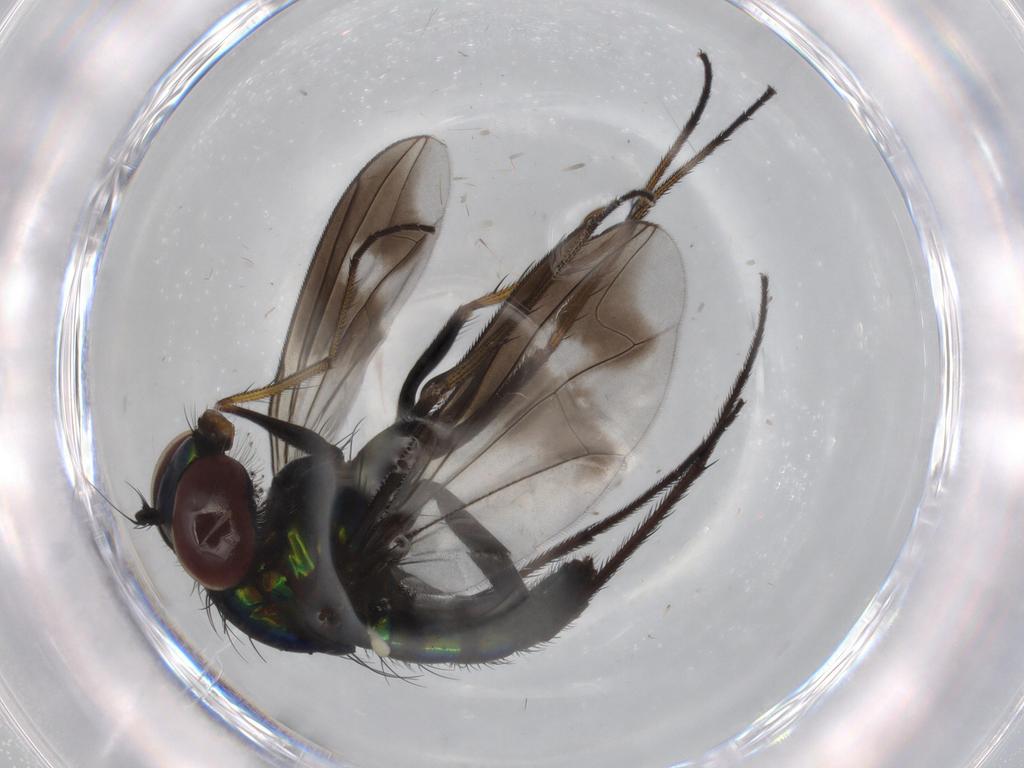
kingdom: Animalia
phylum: Arthropoda
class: Insecta
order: Diptera
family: Dolichopodidae
